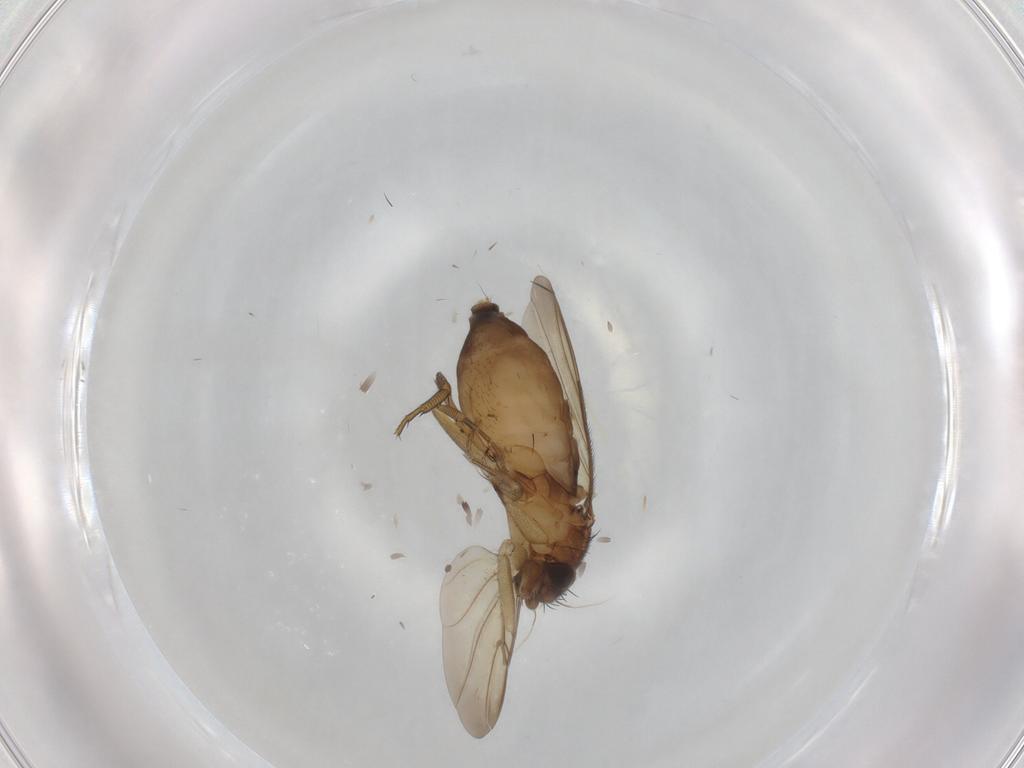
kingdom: Animalia
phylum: Arthropoda
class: Insecta
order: Diptera
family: Phoridae
